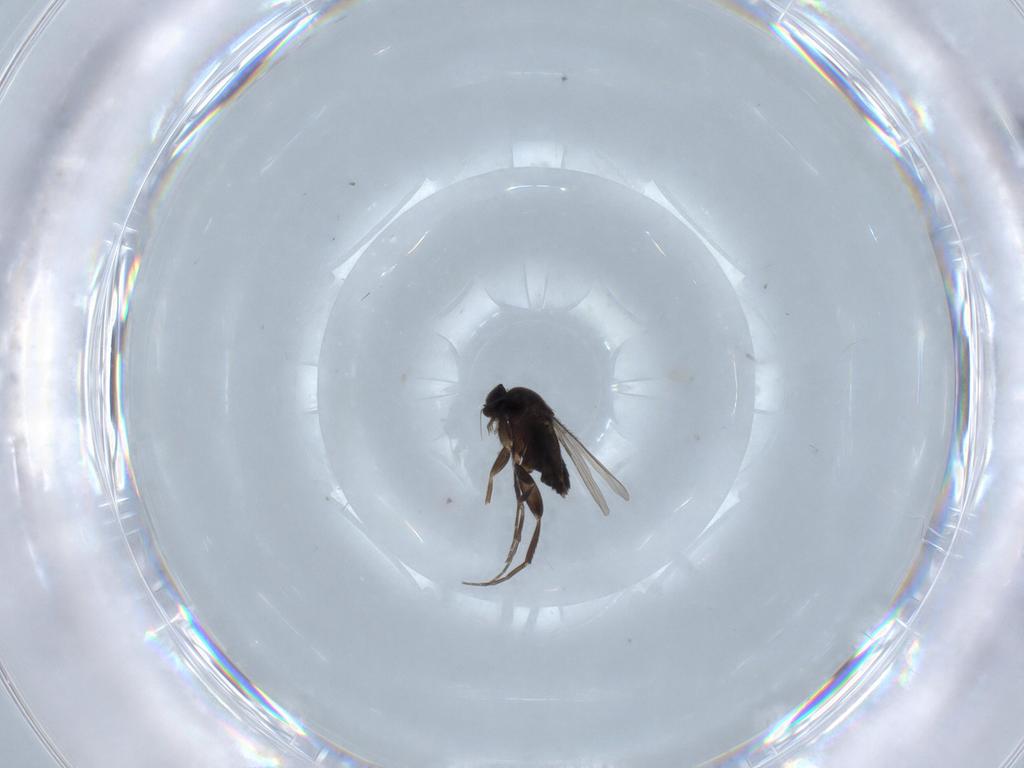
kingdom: Animalia
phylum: Arthropoda
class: Insecta
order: Diptera
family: Phoridae
